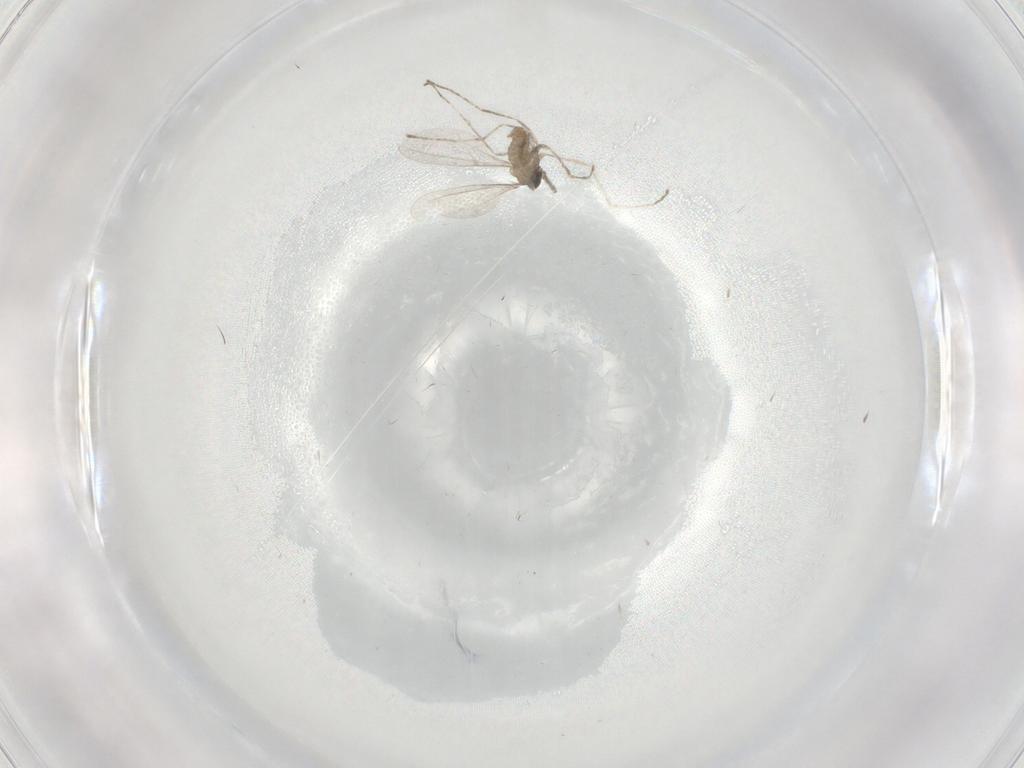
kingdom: Animalia
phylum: Arthropoda
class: Insecta
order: Diptera
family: Cecidomyiidae
